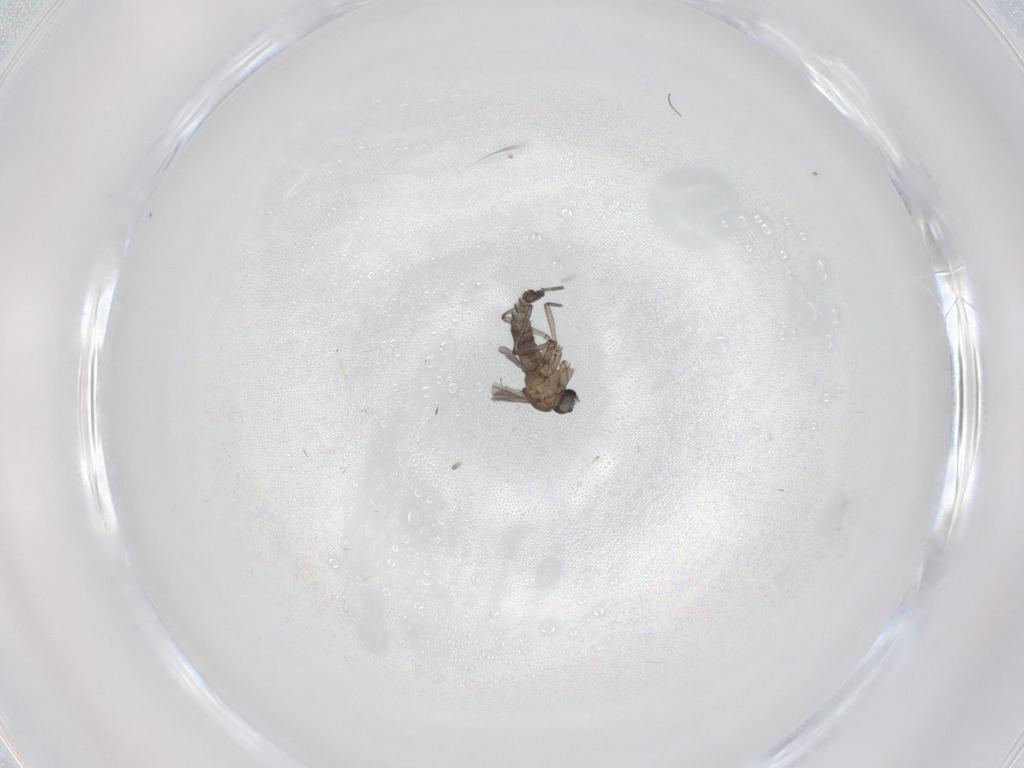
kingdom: Animalia
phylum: Arthropoda
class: Insecta
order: Diptera
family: Sciaridae
